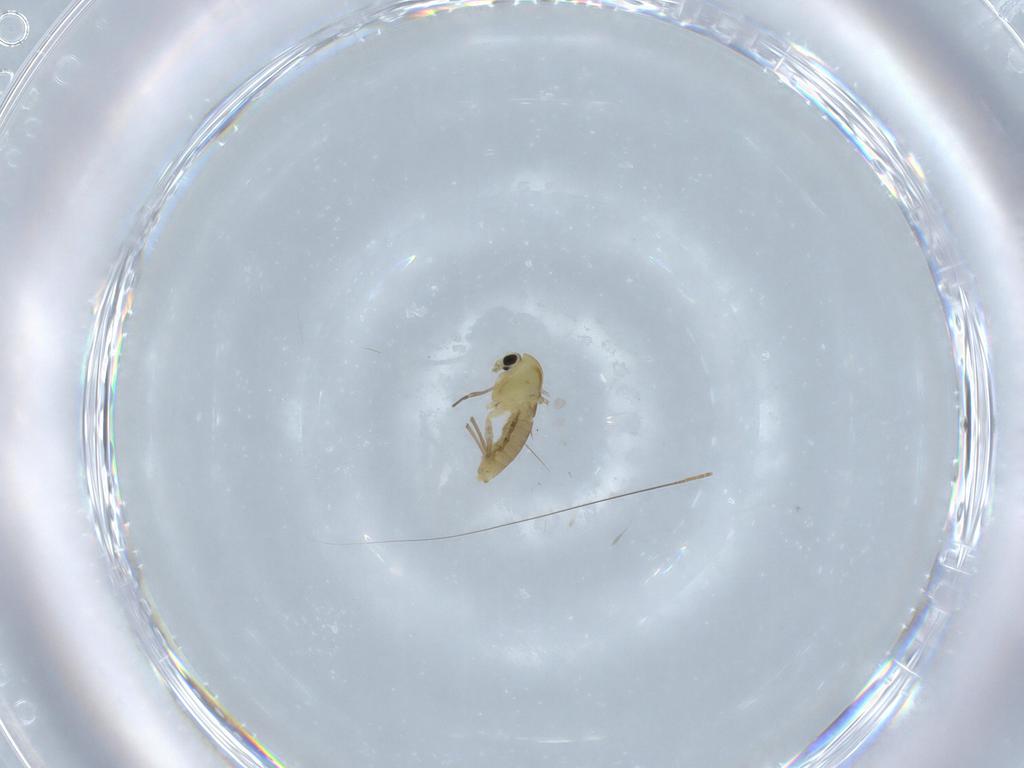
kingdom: Animalia
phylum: Arthropoda
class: Insecta
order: Diptera
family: Chironomidae
